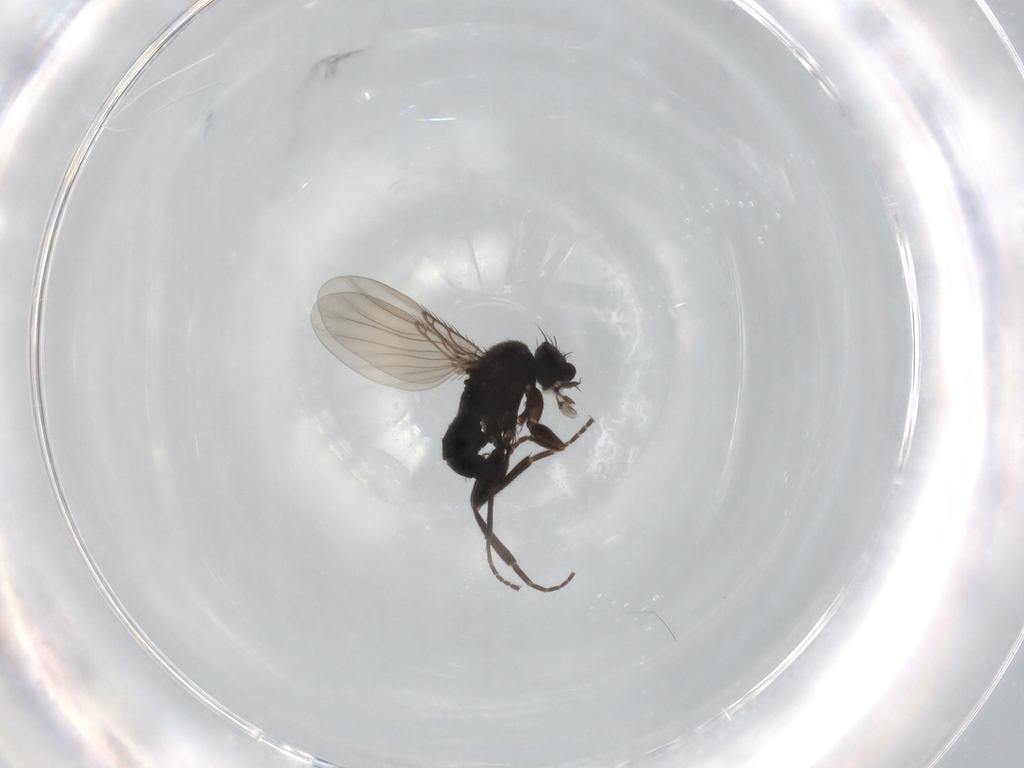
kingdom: Animalia
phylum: Arthropoda
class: Insecta
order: Diptera
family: Phoridae
